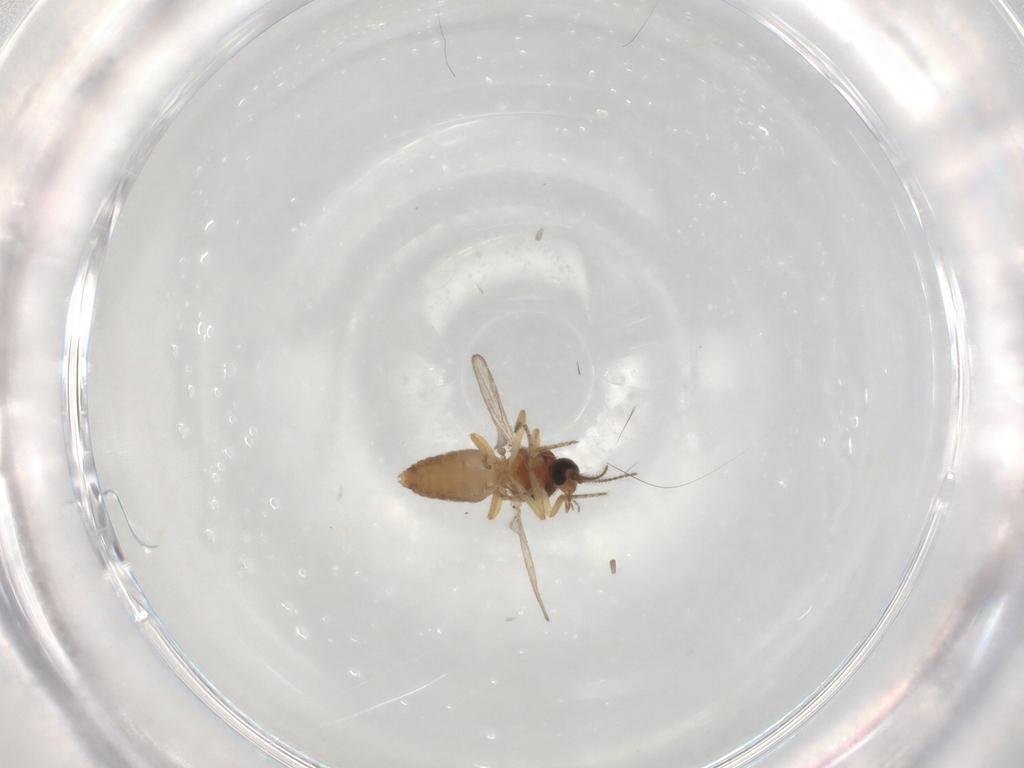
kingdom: Animalia
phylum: Arthropoda
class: Insecta
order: Diptera
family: Ceratopogonidae
